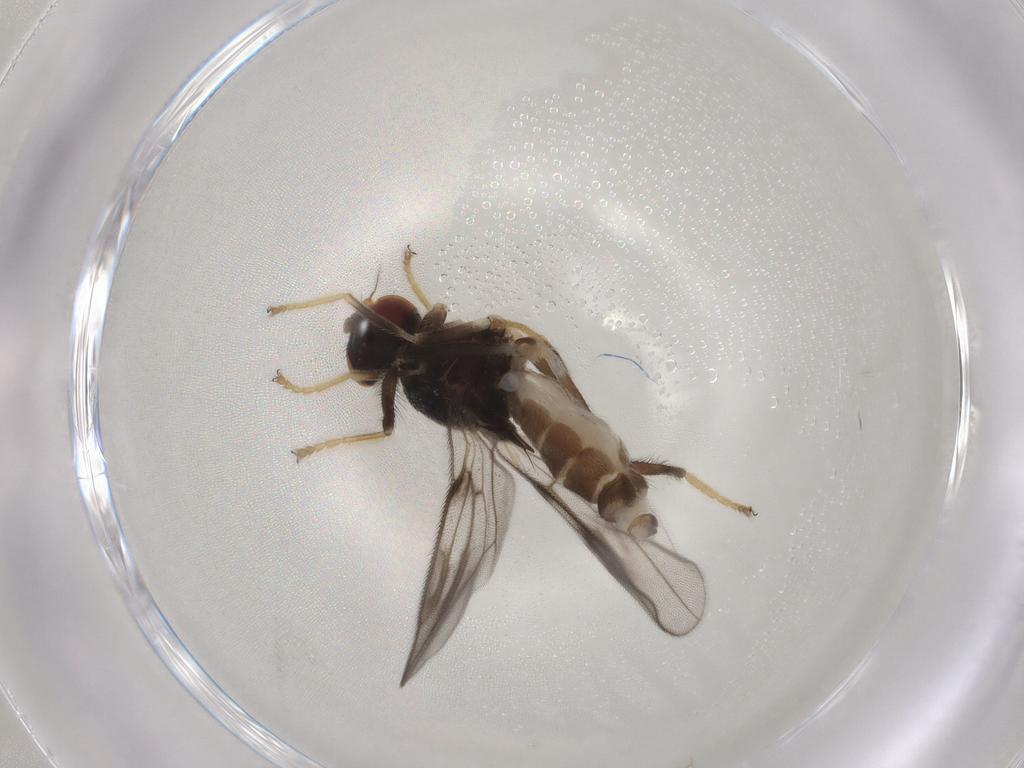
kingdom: Animalia
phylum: Arthropoda
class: Insecta
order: Diptera
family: Chloropidae
